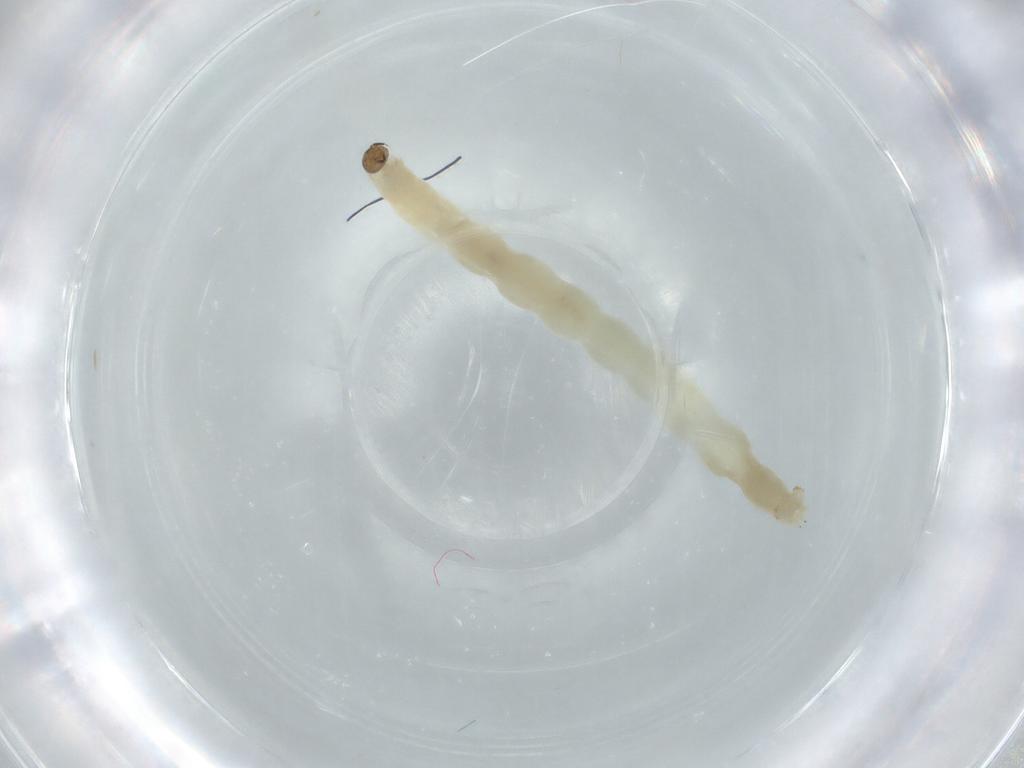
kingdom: Animalia
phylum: Arthropoda
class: Insecta
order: Diptera
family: Chironomidae
